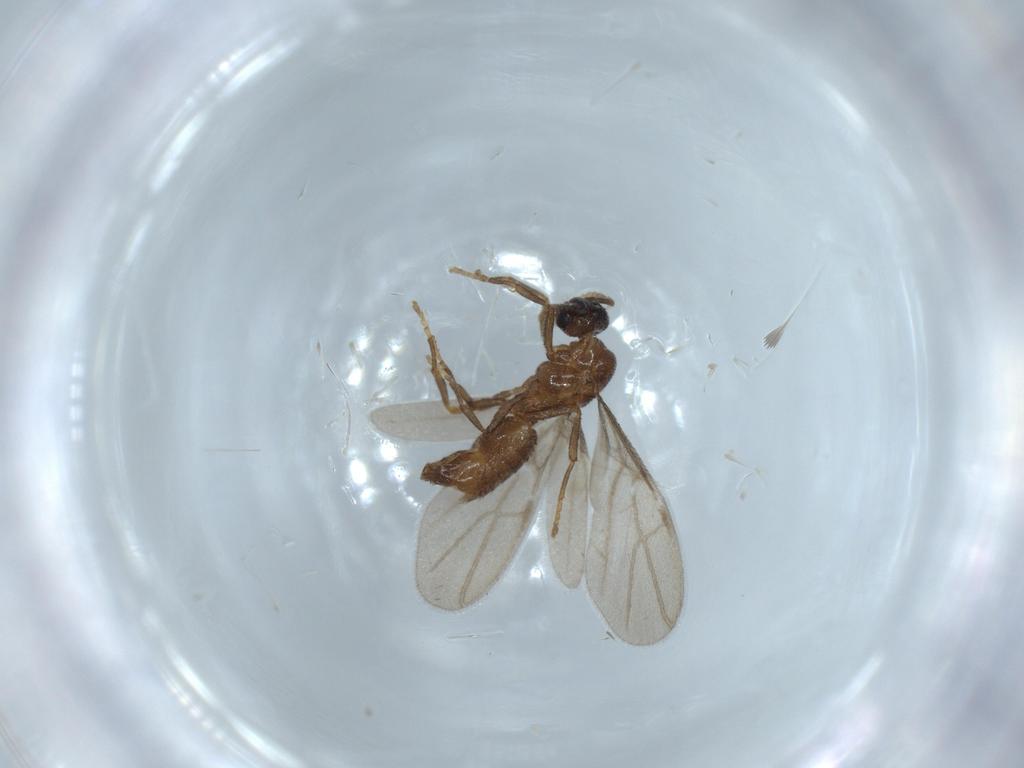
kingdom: Animalia
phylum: Arthropoda
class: Insecta
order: Hymenoptera
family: Formicidae
